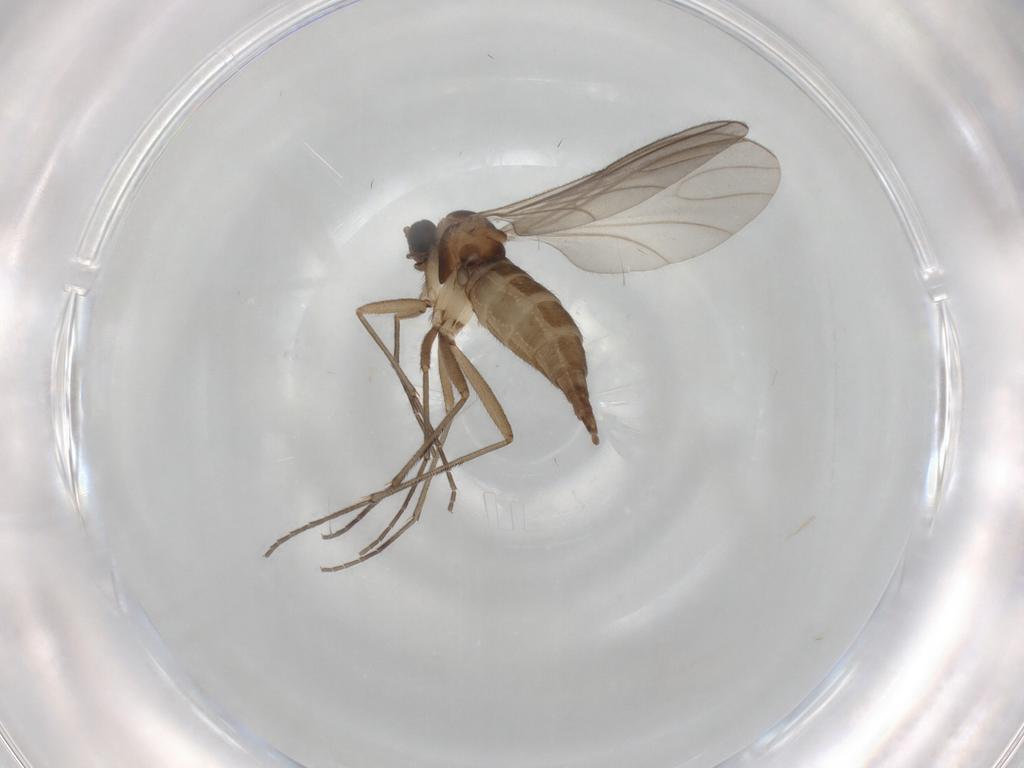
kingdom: Animalia
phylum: Arthropoda
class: Insecta
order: Diptera
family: Sciaridae
